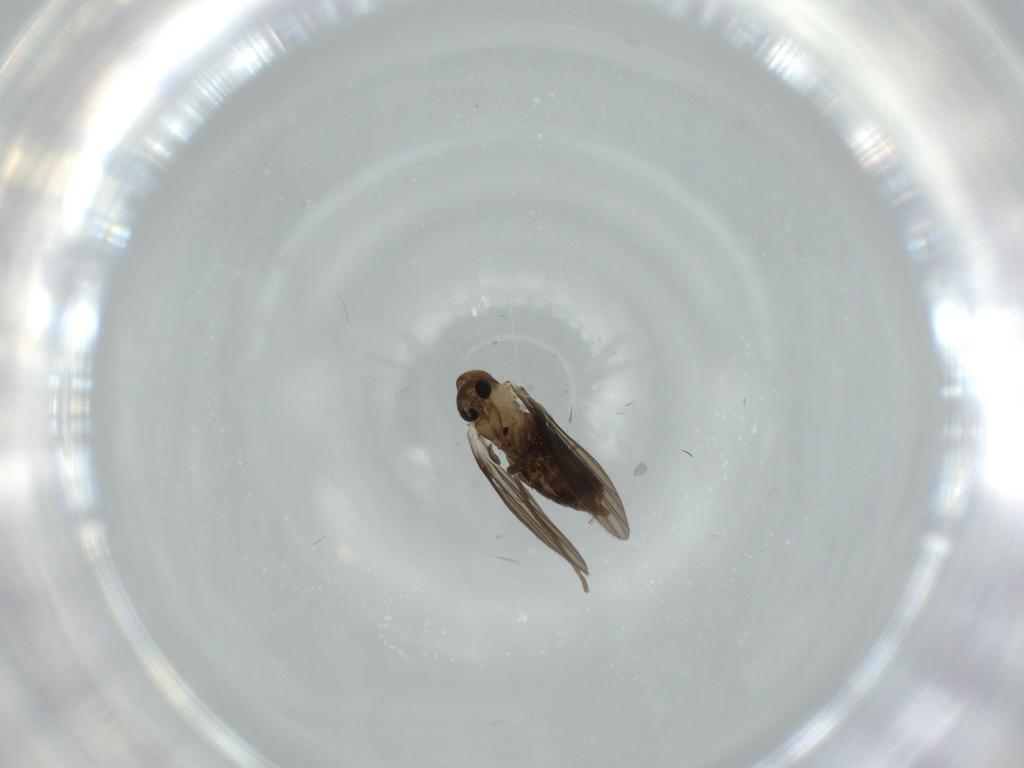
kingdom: Animalia
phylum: Arthropoda
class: Insecta
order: Diptera
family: Psychodidae
